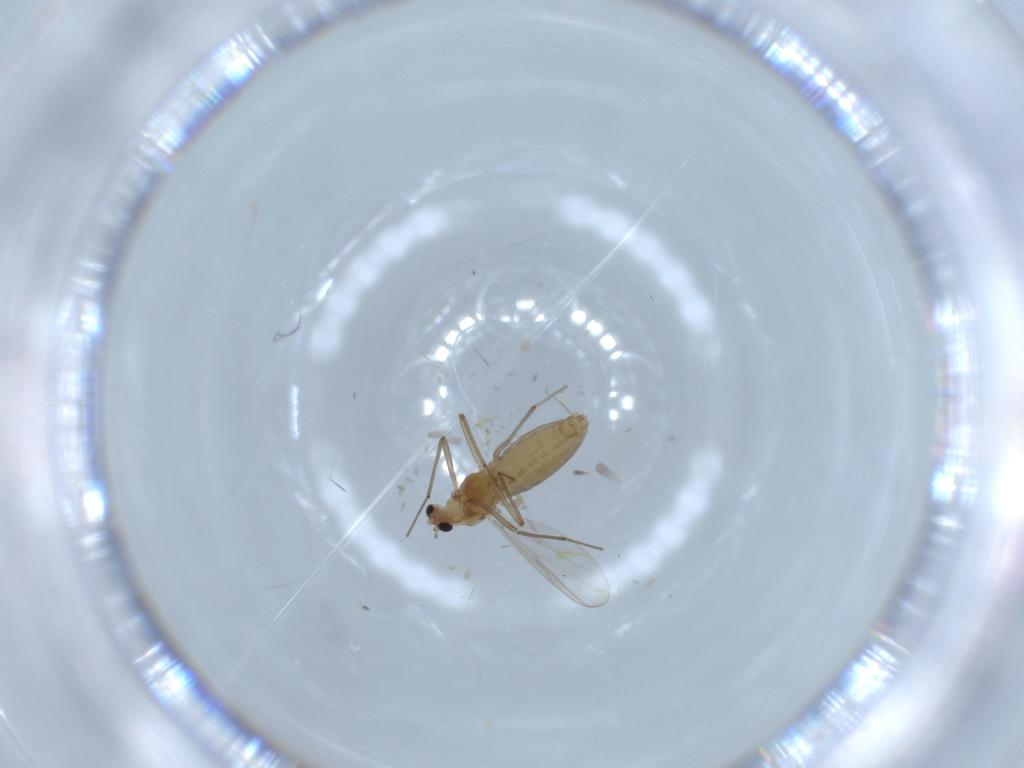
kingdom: Animalia
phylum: Arthropoda
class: Insecta
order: Diptera
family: Chironomidae
